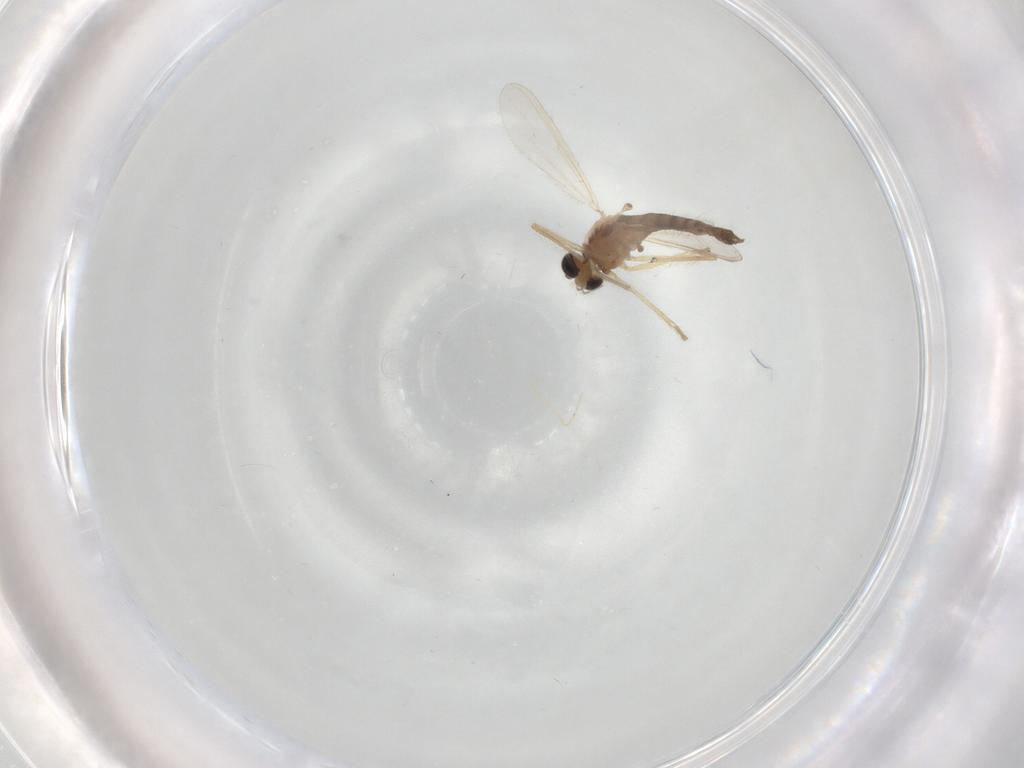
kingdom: Animalia
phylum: Arthropoda
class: Insecta
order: Diptera
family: Chironomidae
